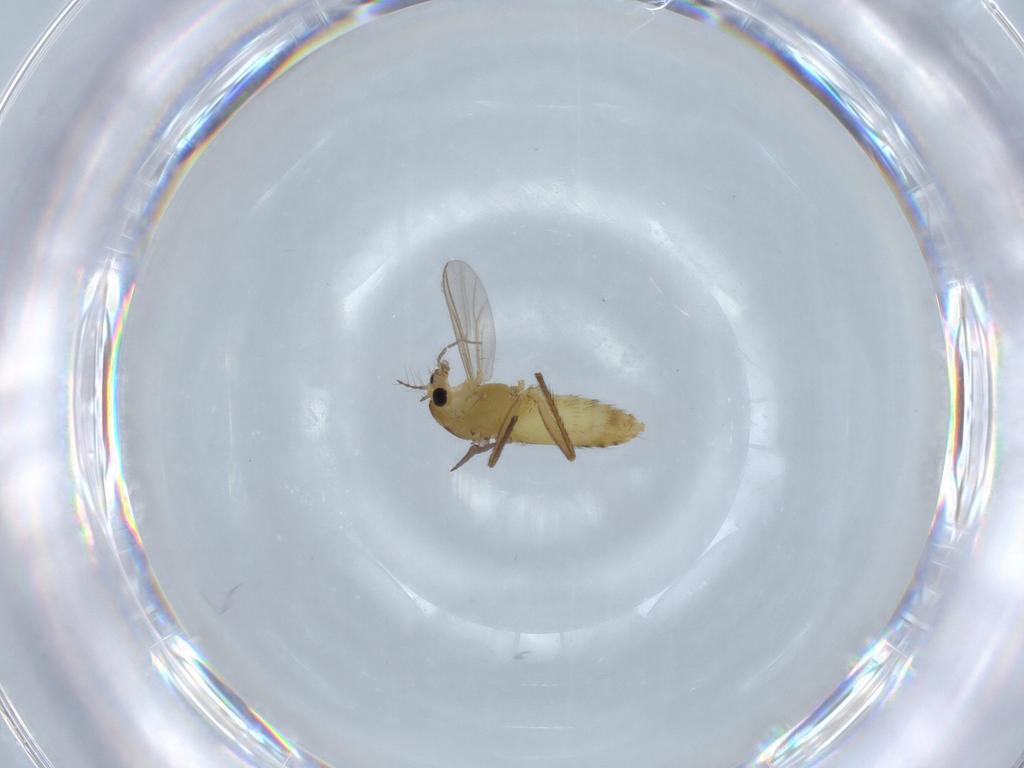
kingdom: Animalia
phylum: Arthropoda
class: Insecta
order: Diptera
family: Chironomidae
